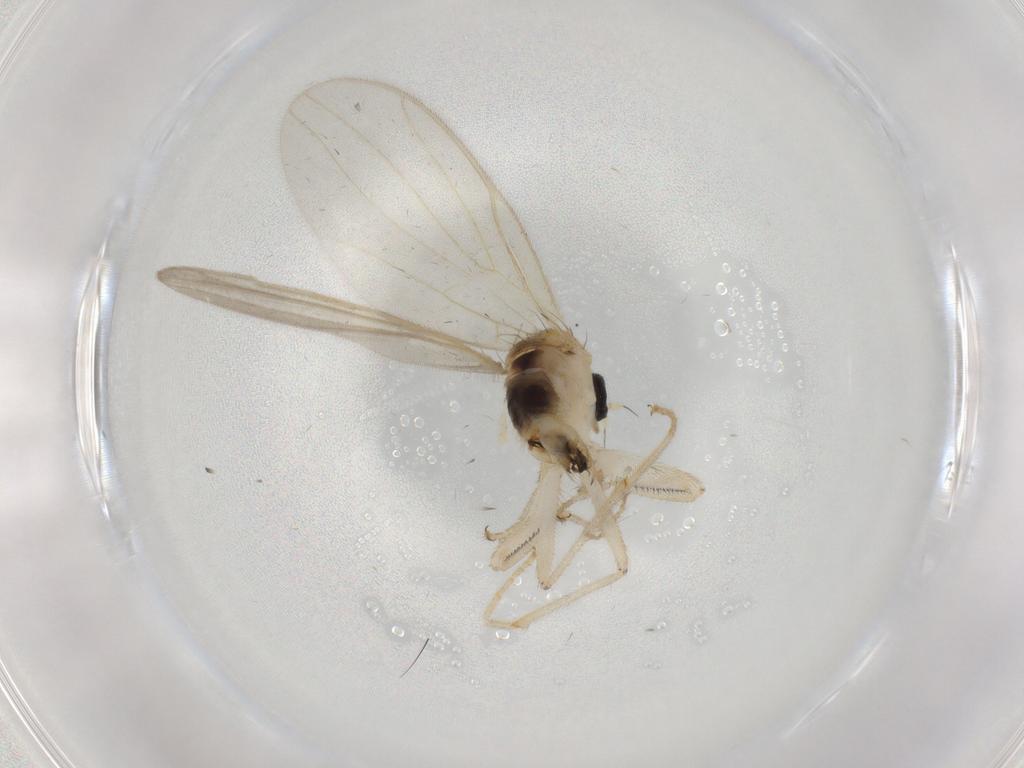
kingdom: Animalia
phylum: Arthropoda
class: Insecta
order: Diptera
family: Hybotidae
